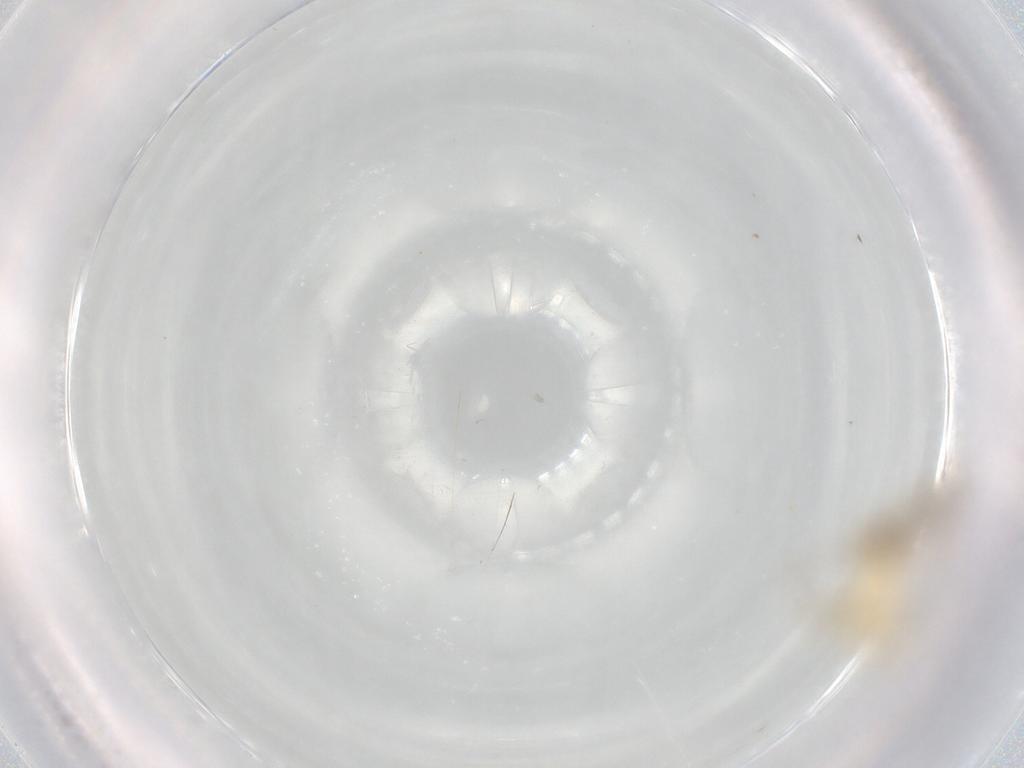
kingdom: Animalia
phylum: Arthropoda
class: Insecta
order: Diptera
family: Chironomidae
